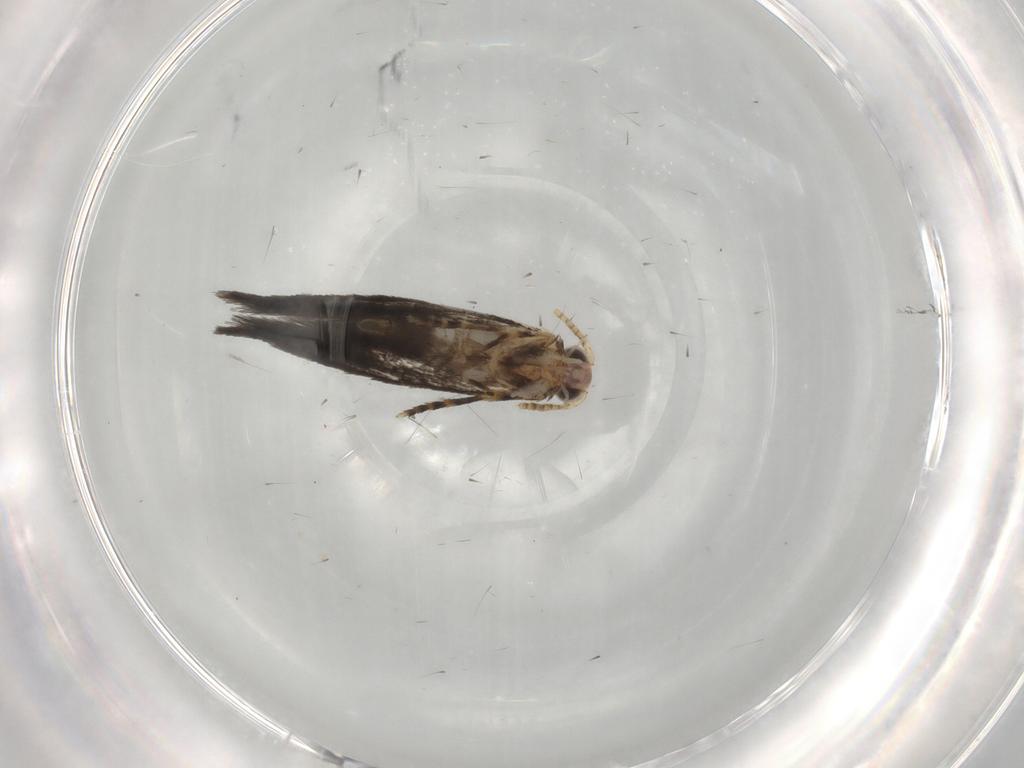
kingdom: Animalia
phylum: Arthropoda
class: Insecta
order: Lepidoptera
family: Tineidae
